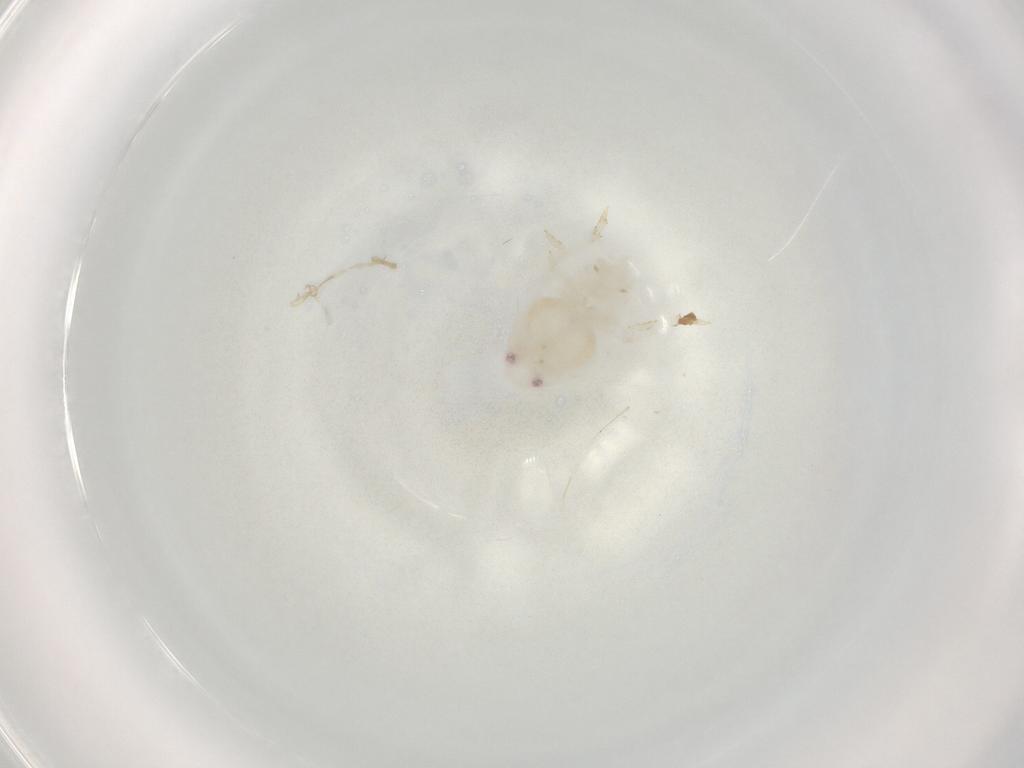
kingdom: Animalia
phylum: Arthropoda
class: Insecta
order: Hemiptera
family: Flatidae
